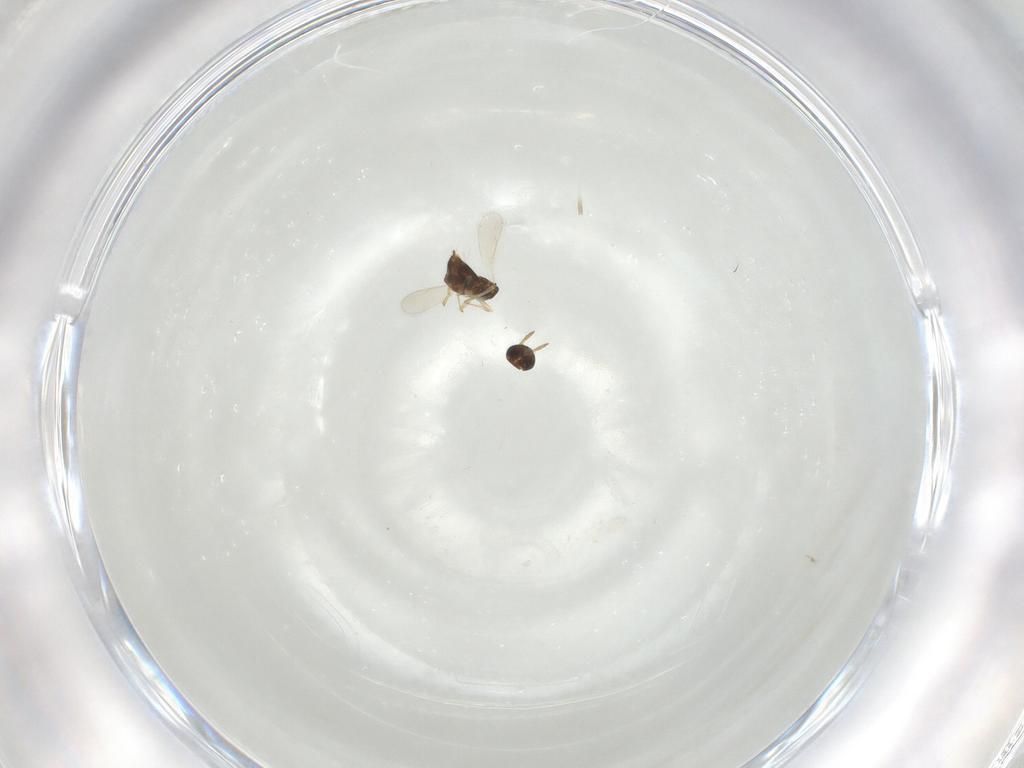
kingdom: Animalia
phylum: Arthropoda
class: Insecta
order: Hymenoptera
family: Aphelinidae
